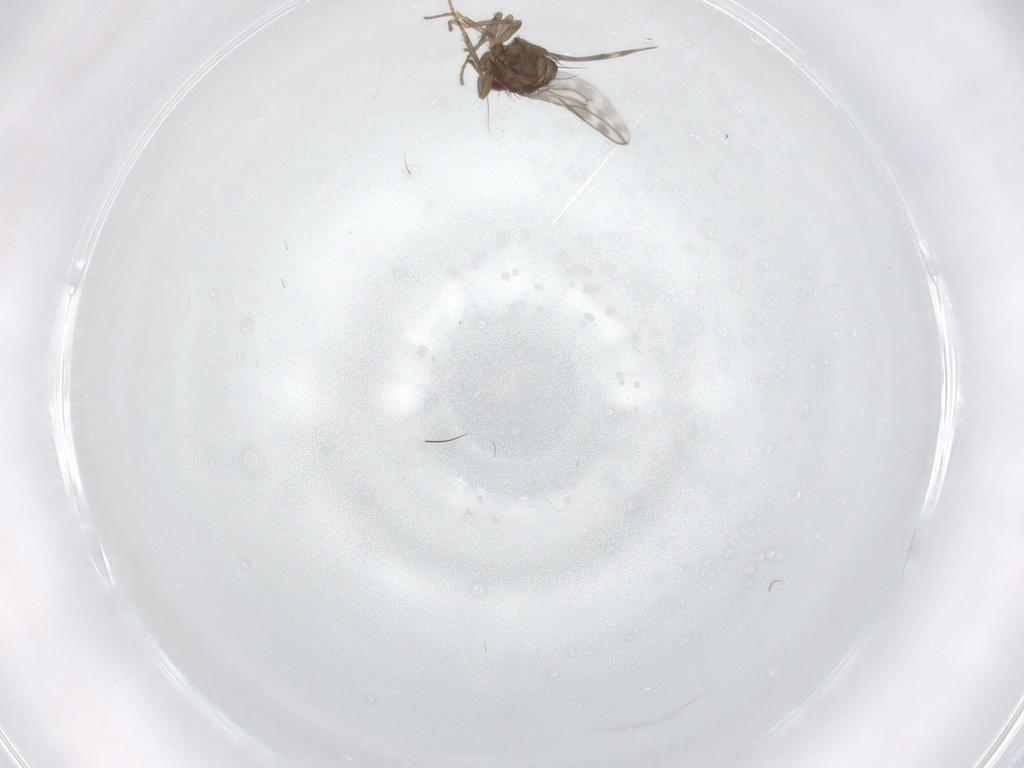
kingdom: Animalia
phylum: Arthropoda
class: Insecta
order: Diptera
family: Sphaeroceridae
